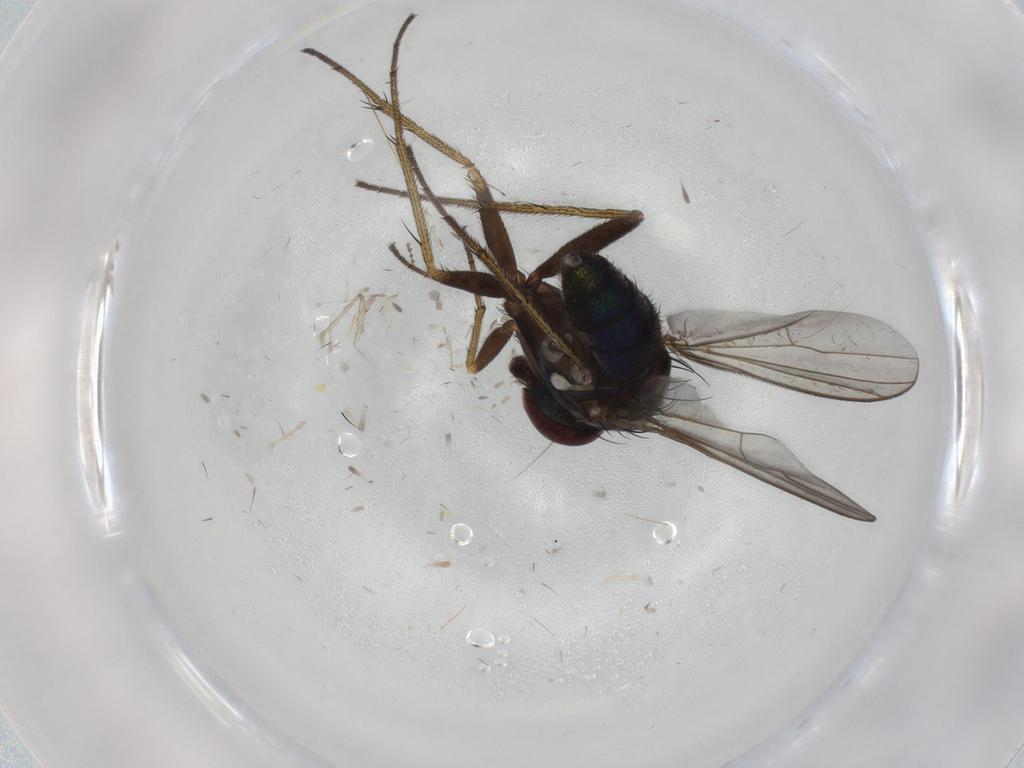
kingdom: Animalia
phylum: Arthropoda
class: Insecta
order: Diptera
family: Dolichopodidae
